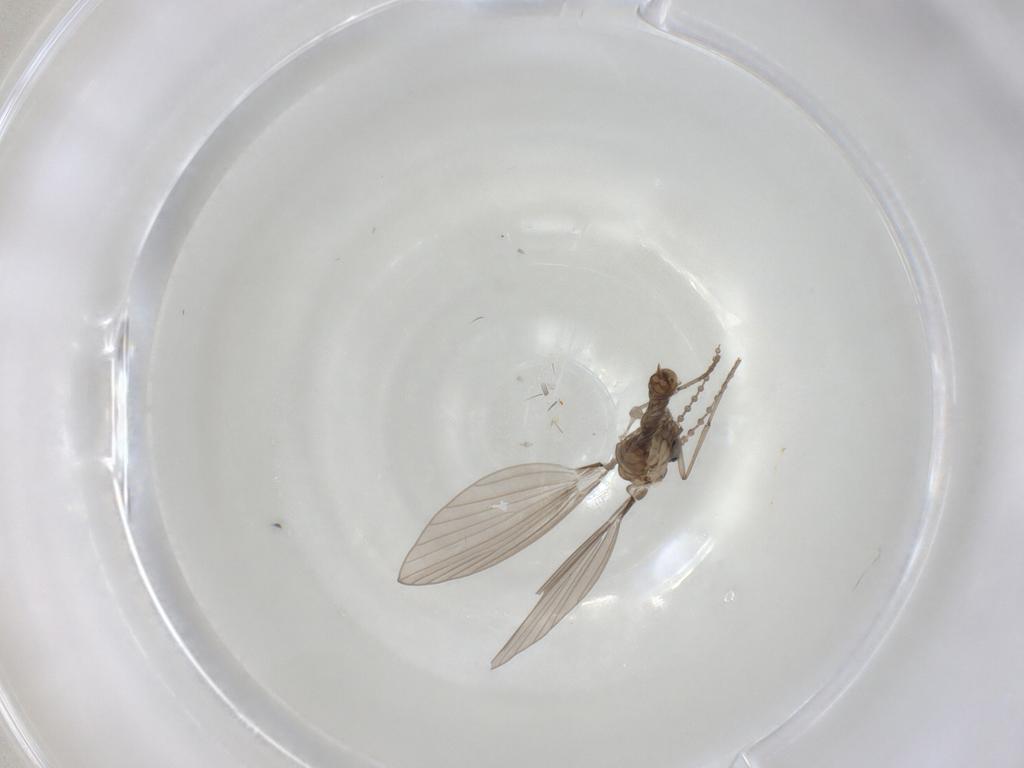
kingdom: Animalia
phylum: Arthropoda
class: Insecta
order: Diptera
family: Psychodidae
